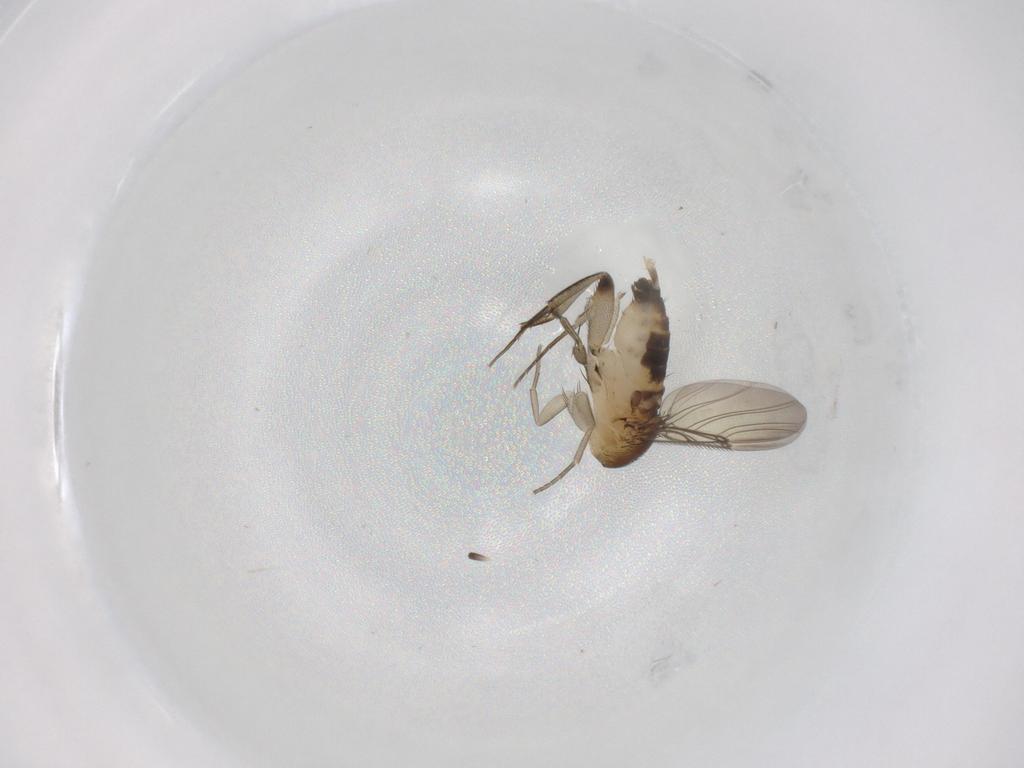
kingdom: Animalia
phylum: Arthropoda
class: Insecta
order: Diptera
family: Phoridae
